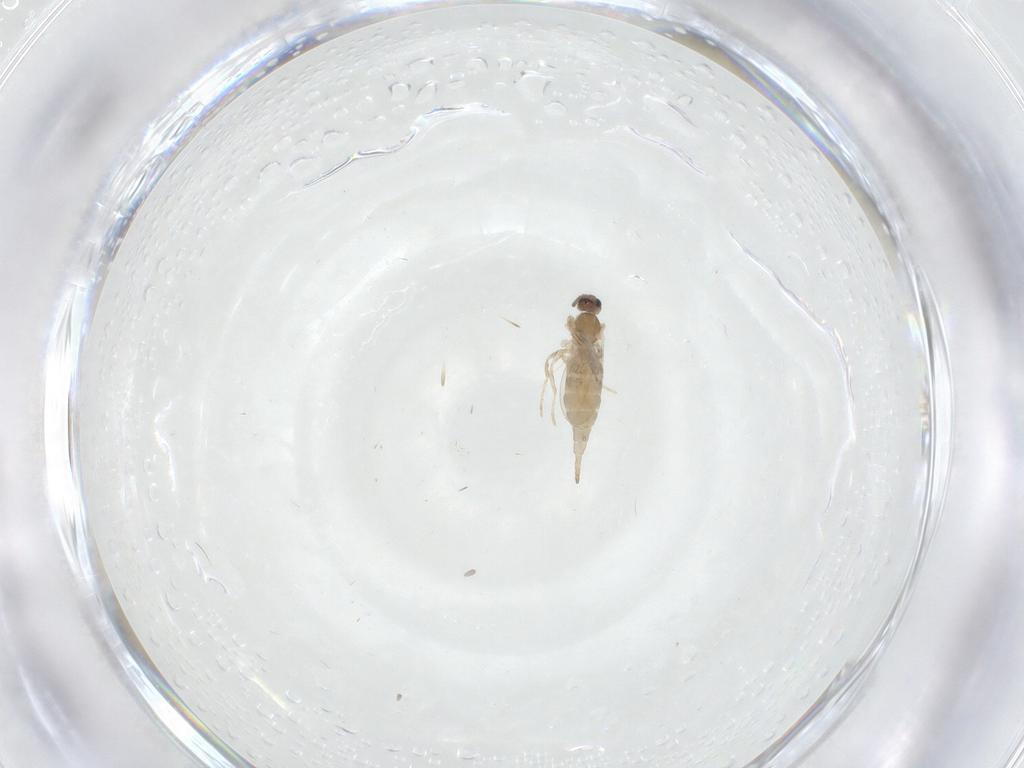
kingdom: Animalia
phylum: Arthropoda
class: Insecta
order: Diptera
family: Cecidomyiidae
